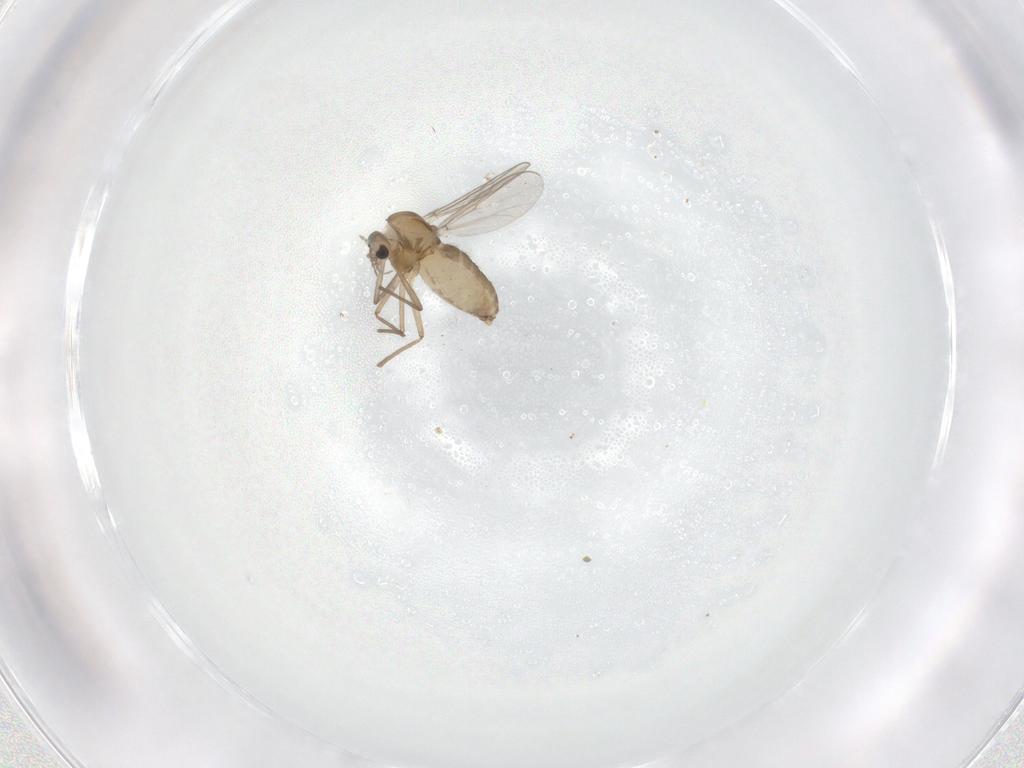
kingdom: Animalia
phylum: Arthropoda
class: Insecta
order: Diptera
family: Chironomidae
